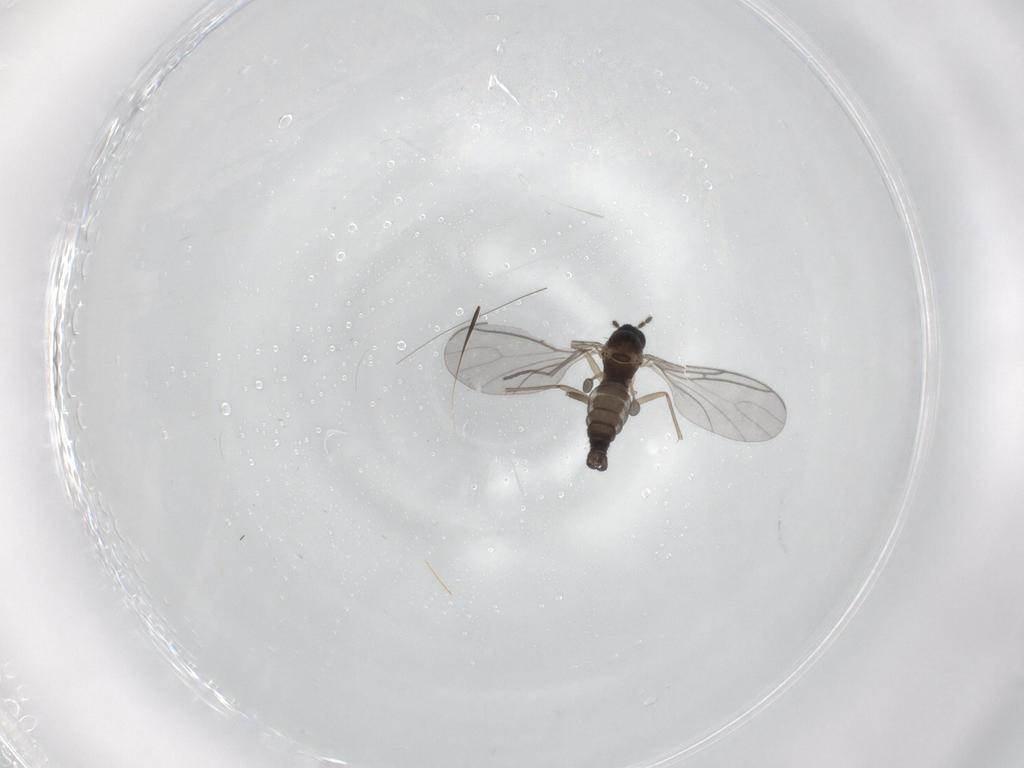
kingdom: Animalia
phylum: Arthropoda
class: Insecta
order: Diptera
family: Sciaridae
